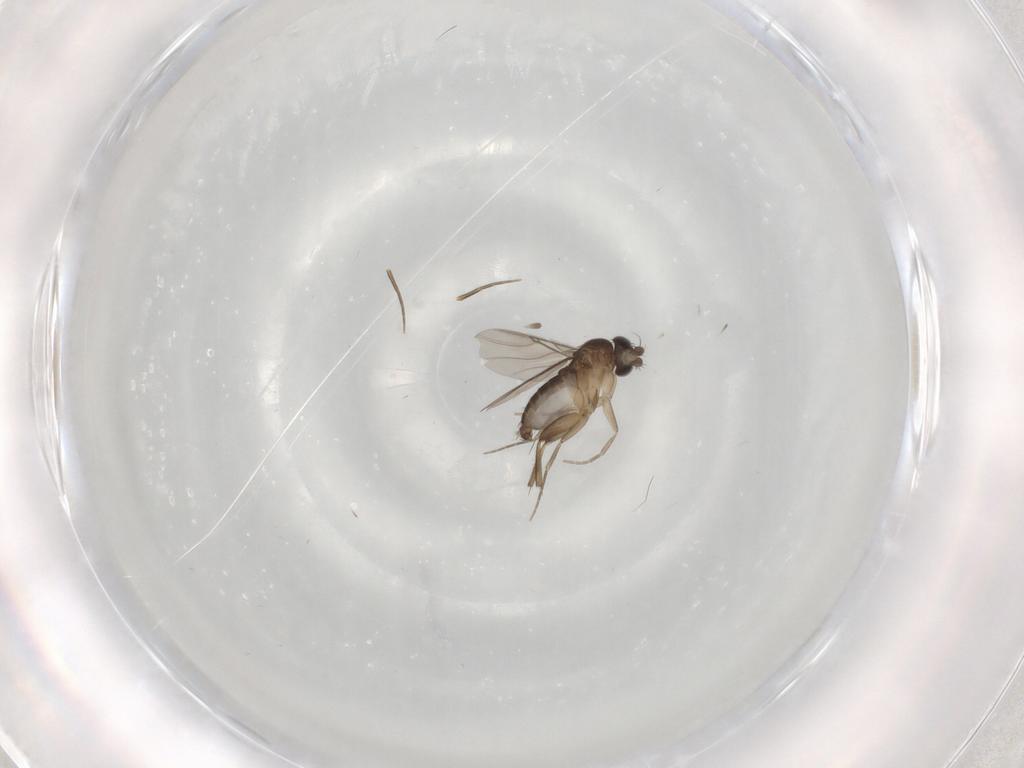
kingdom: Animalia
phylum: Arthropoda
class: Insecta
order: Diptera
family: Phoridae
